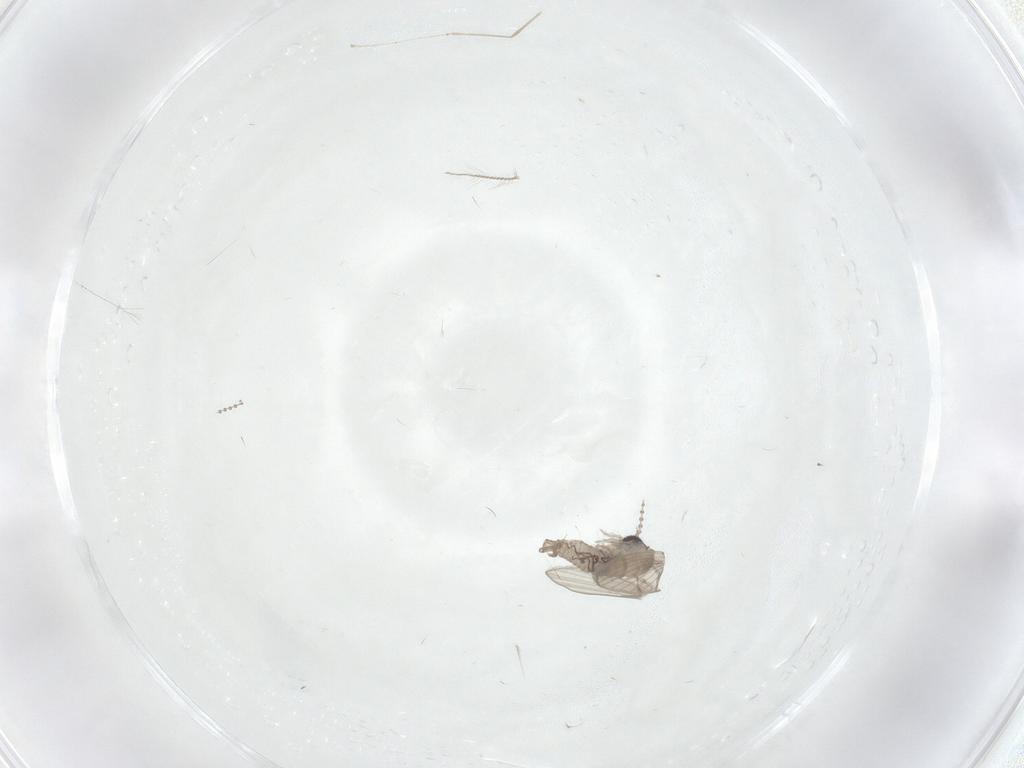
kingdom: Animalia
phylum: Arthropoda
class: Insecta
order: Diptera
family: Psychodidae
